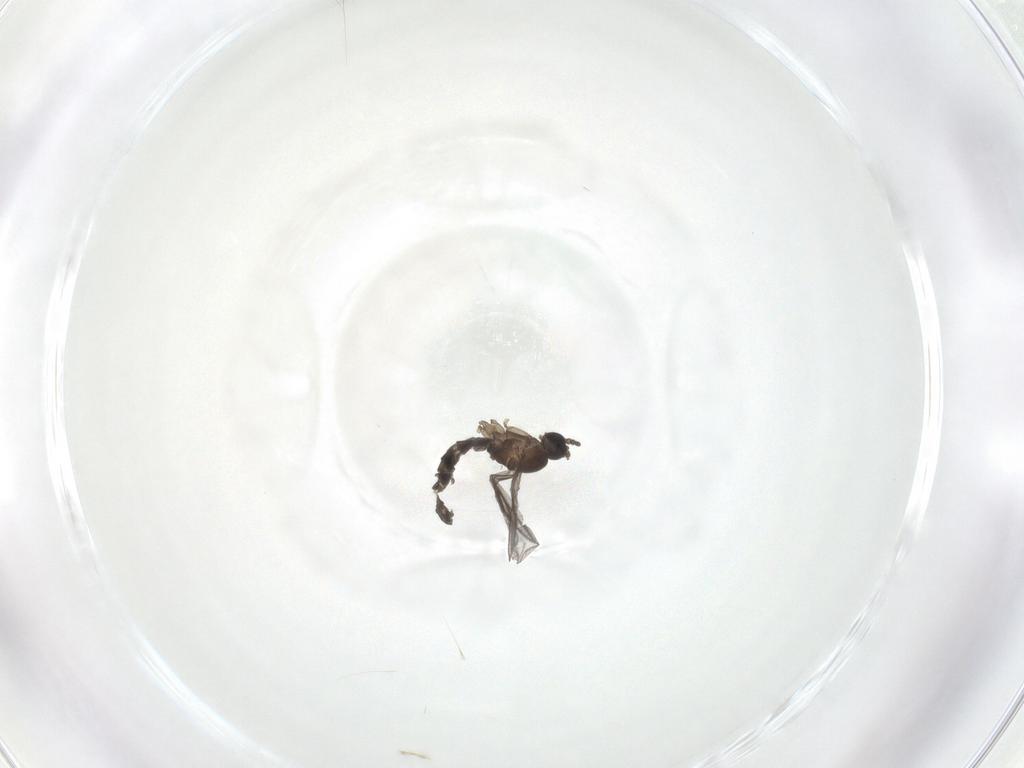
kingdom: Animalia
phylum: Arthropoda
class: Insecta
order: Diptera
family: Sciaridae
